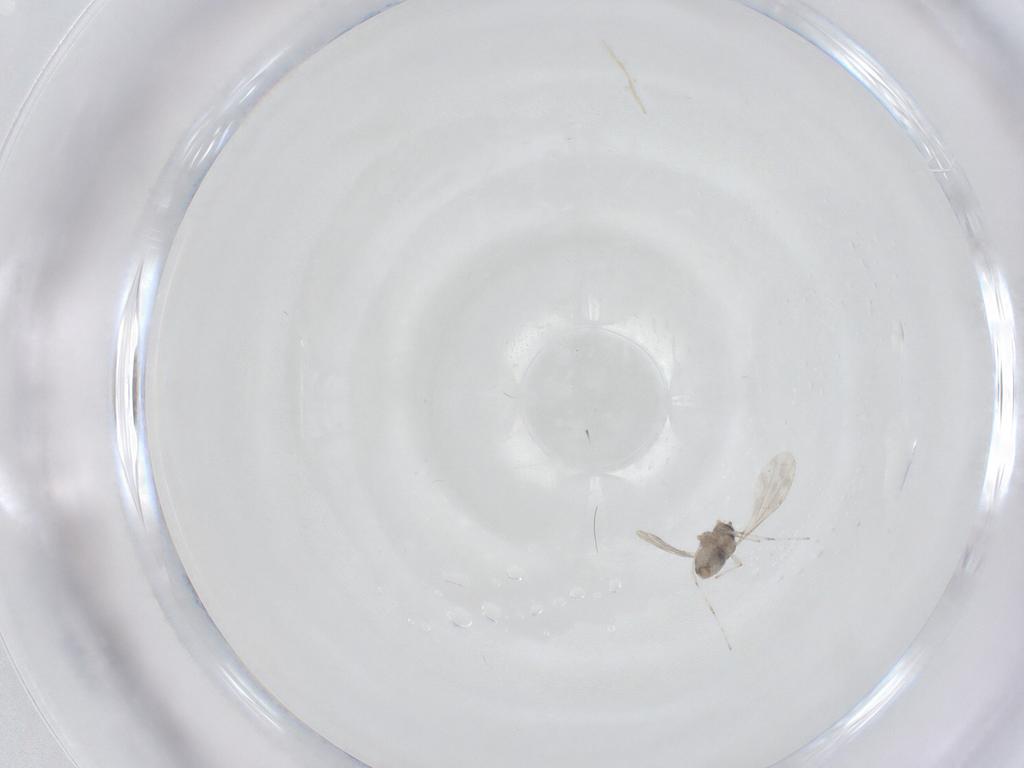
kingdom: Animalia
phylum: Arthropoda
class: Insecta
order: Diptera
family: Cecidomyiidae
